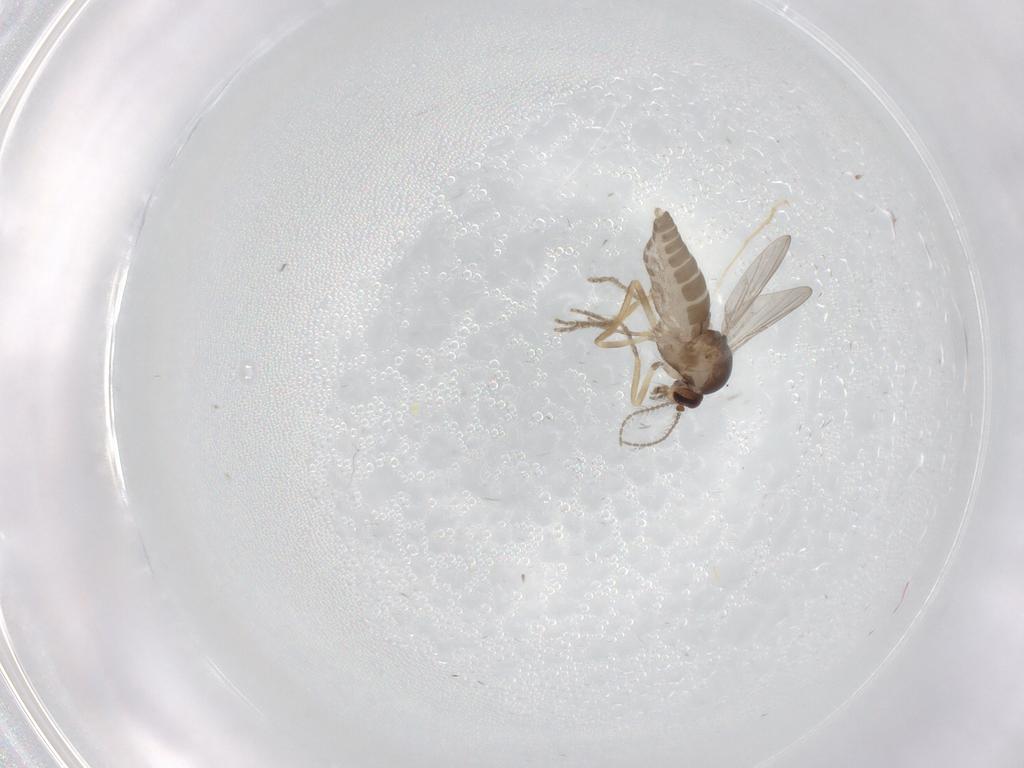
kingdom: Animalia
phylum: Arthropoda
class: Insecta
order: Diptera
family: Ceratopogonidae
